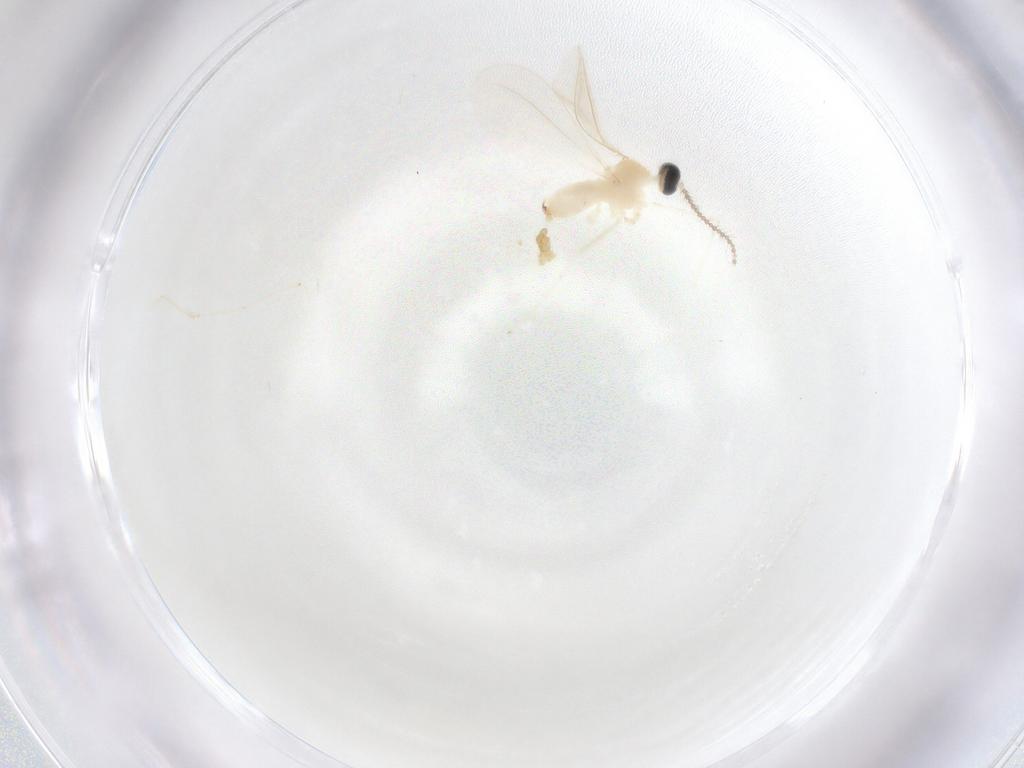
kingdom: Animalia
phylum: Arthropoda
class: Insecta
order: Diptera
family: Chironomidae
